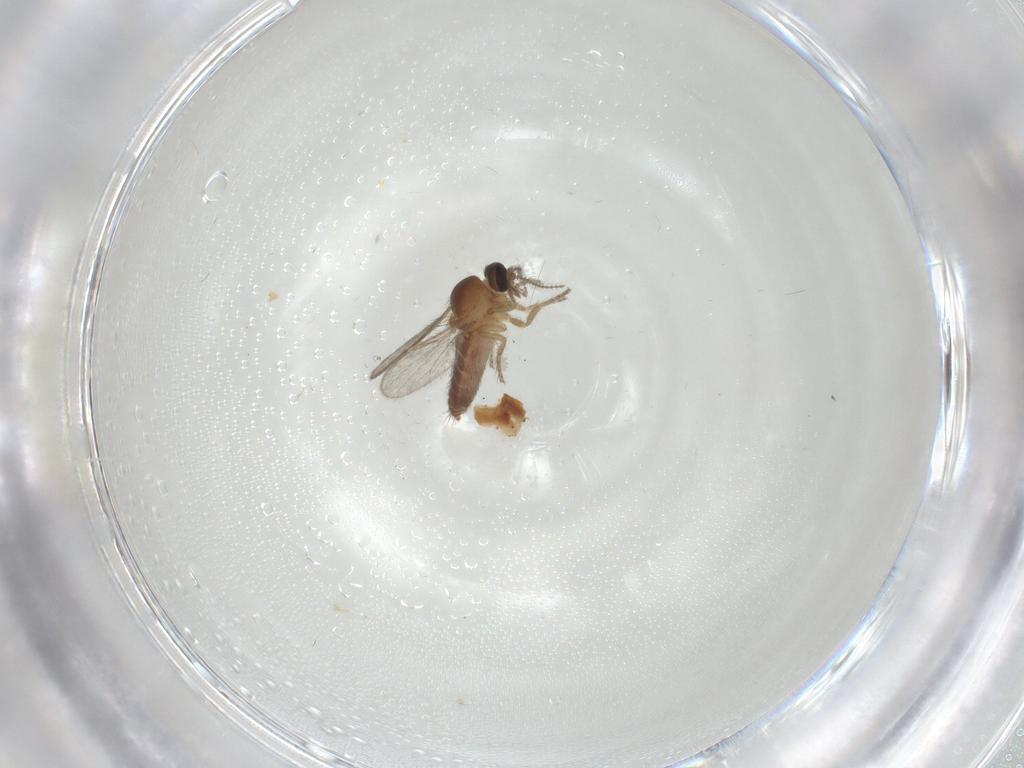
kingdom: Animalia
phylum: Arthropoda
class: Insecta
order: Diptera
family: Ceratopogonidae
